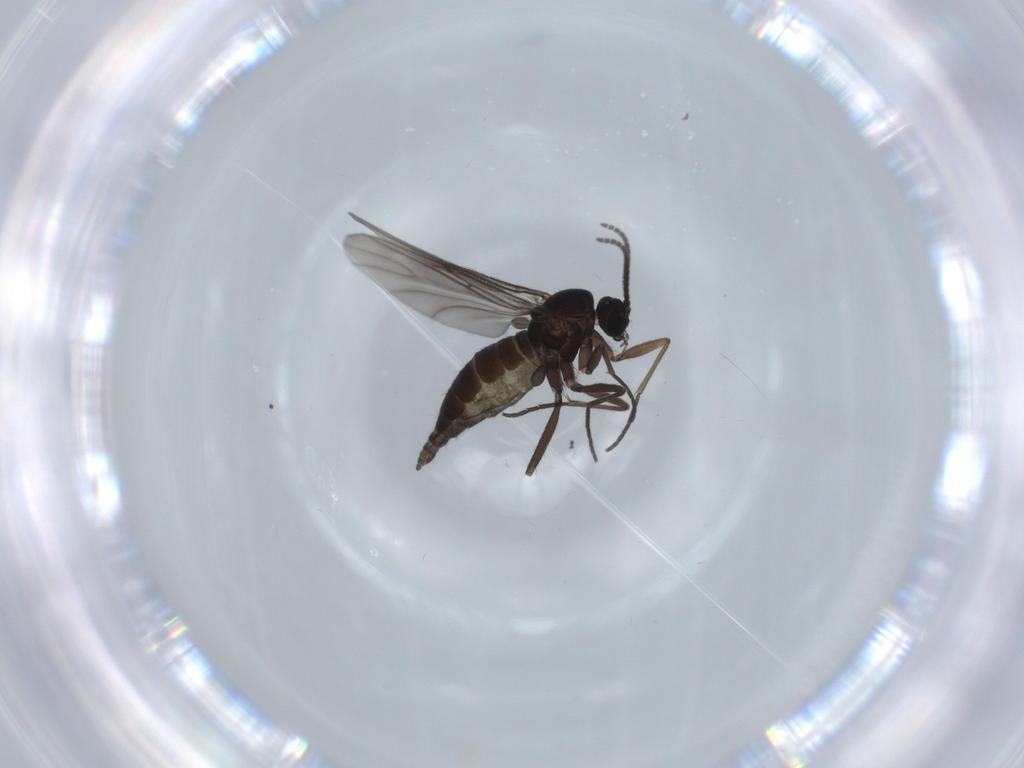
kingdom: Animalia
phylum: Arthropoda
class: Insecta
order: Diptera
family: Sciaridae
